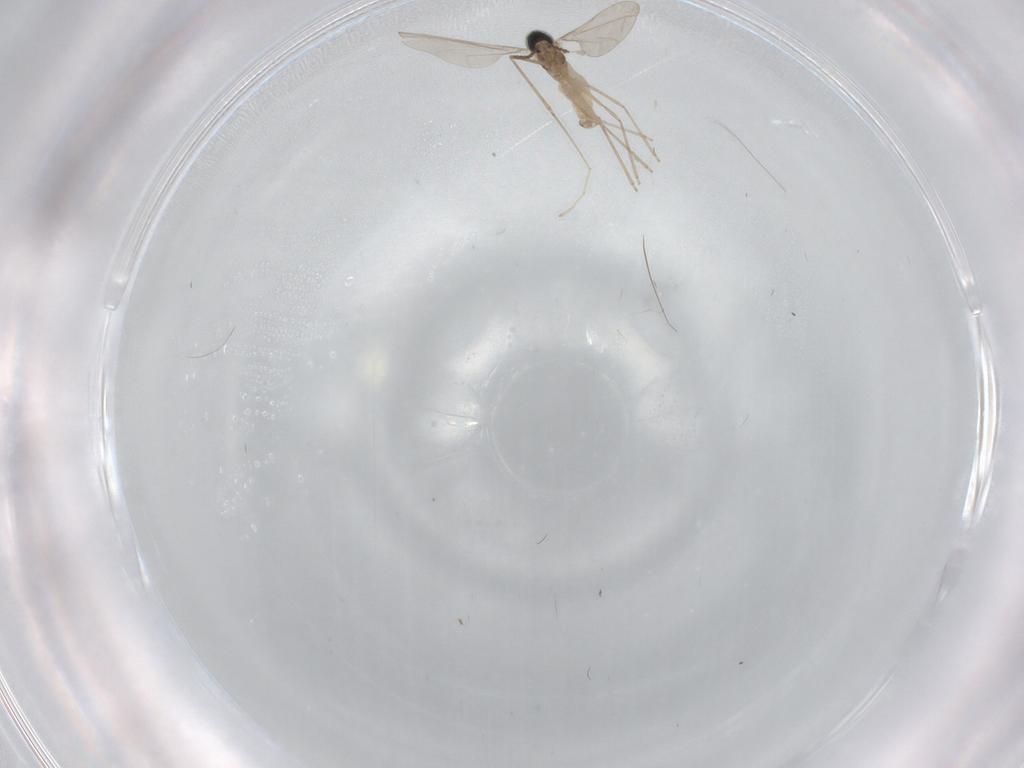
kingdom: Animalia
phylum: Arthropoda
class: Insecta
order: Diptera
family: Cecidomyiidae
